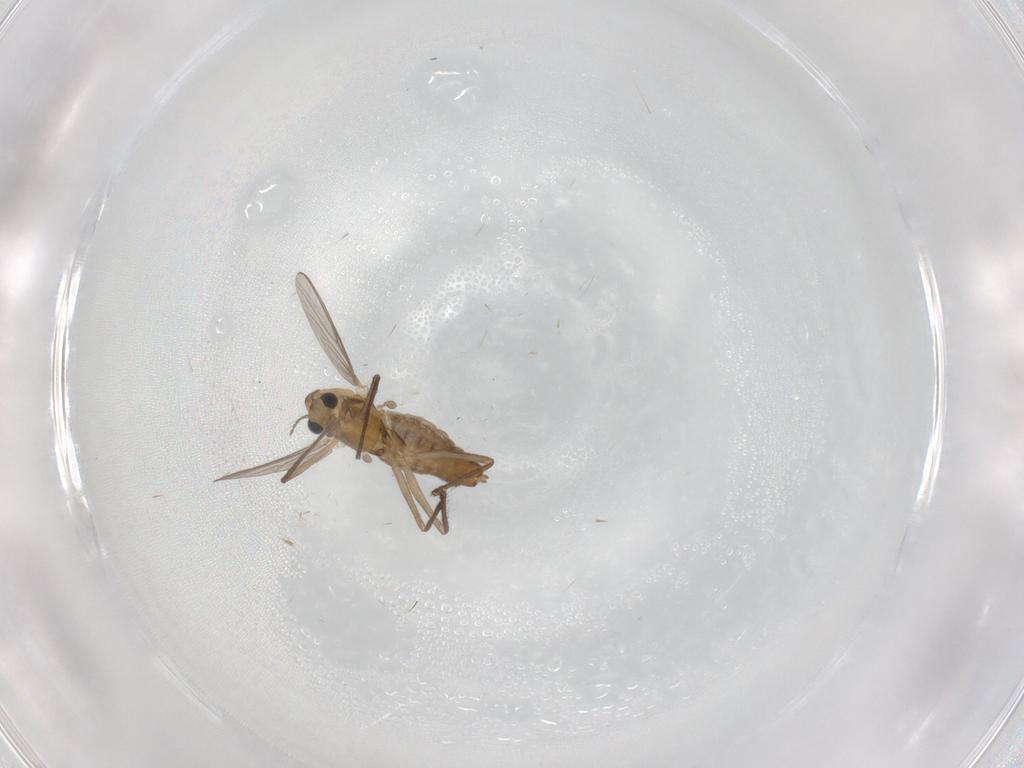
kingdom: Animalia
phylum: Arthropoda
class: Insecta
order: Diptera
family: Chironomidae
